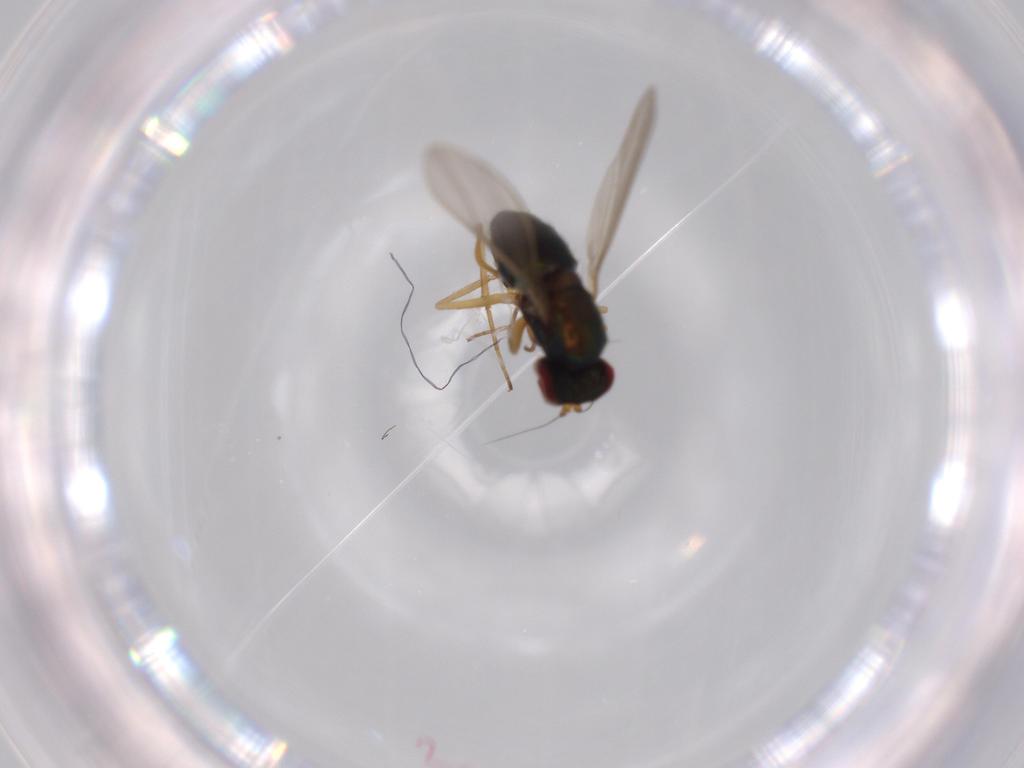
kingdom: Animalia
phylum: Arthropoda
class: Insecta
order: Diptera
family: Dolichopodidae
